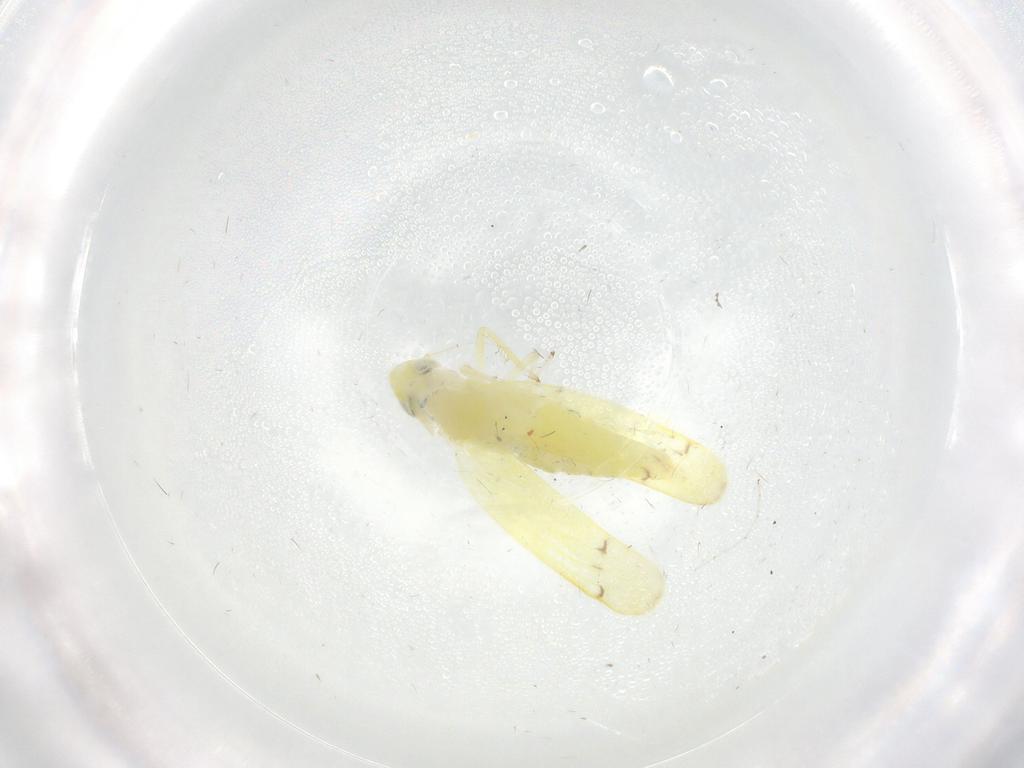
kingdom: Animalia
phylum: Arthropoda
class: Insecta
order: Hemiptera
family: Cicadellidae
